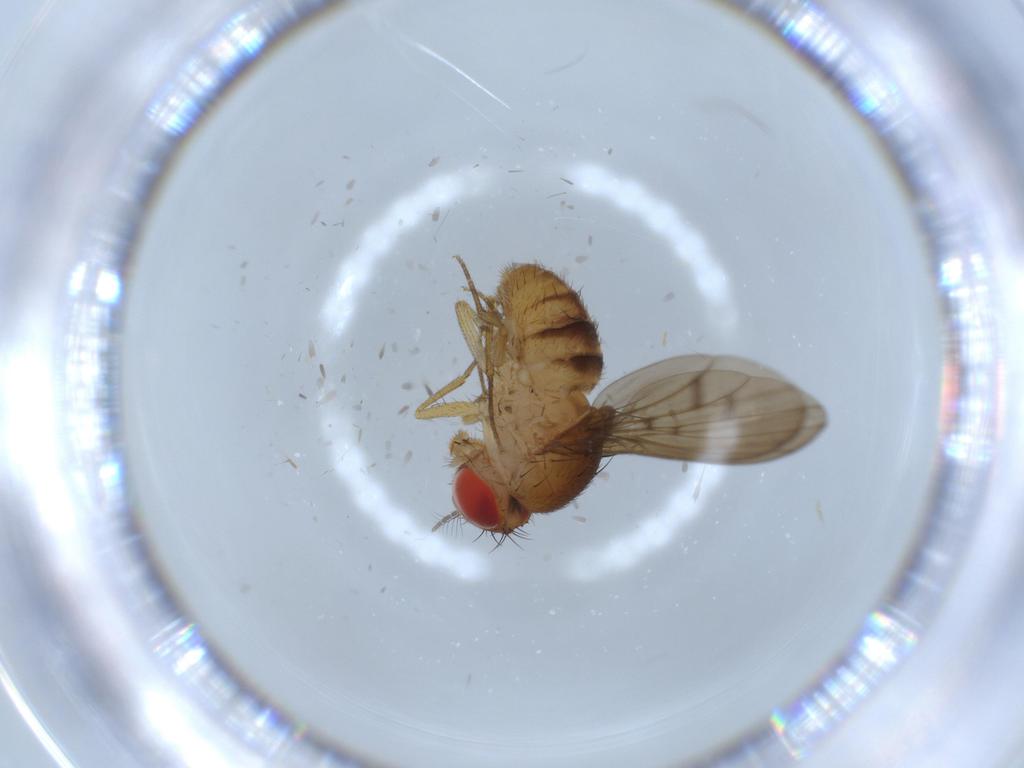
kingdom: Animalia
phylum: Arthropoda
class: Insecta
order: Diptera
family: Drosophilidae
